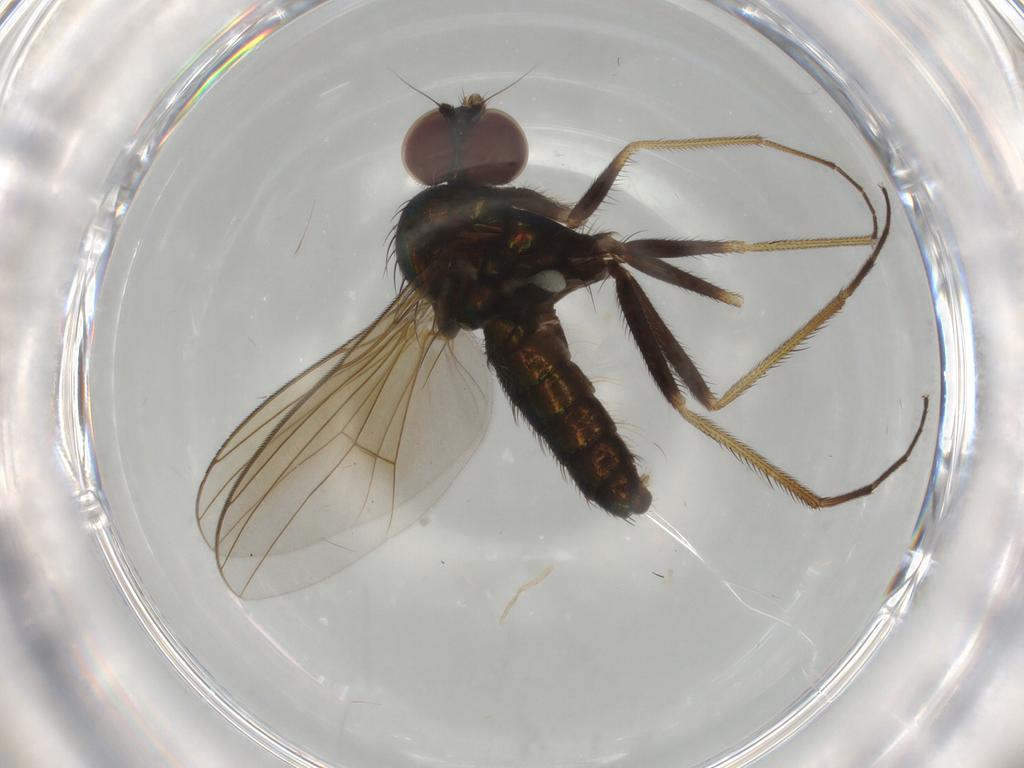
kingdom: Animalia
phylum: Arthropoda
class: Insecta
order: Diptera
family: Dolichopodidae
